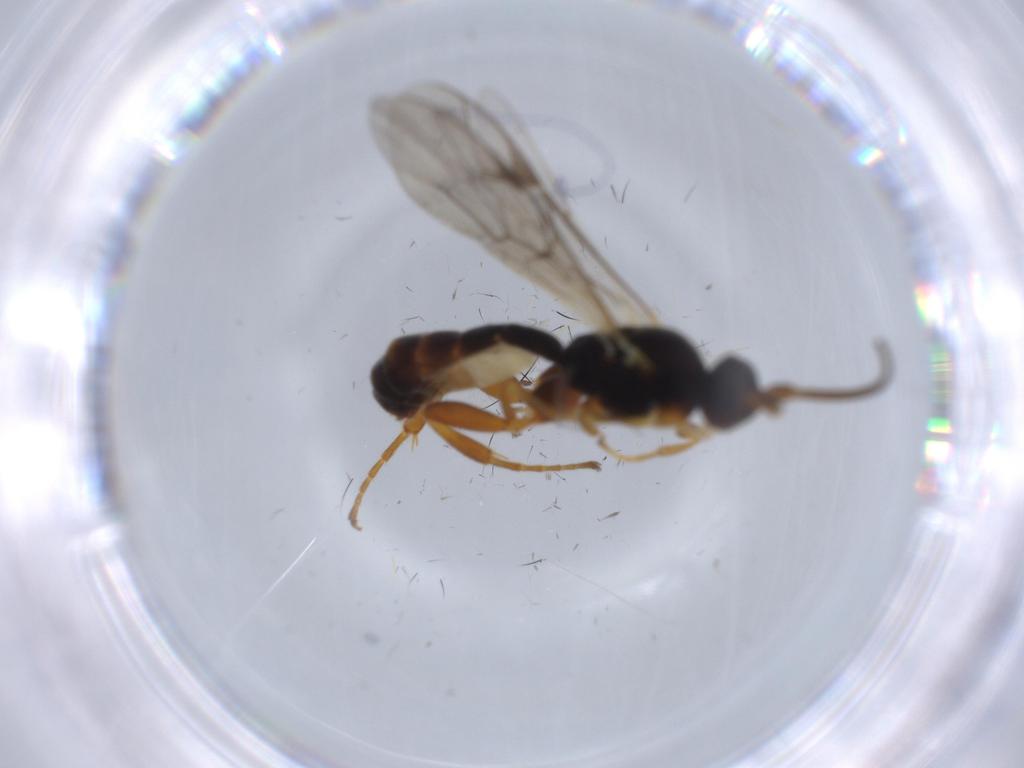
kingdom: Animalia
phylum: Arthropoda
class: Insecta
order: Hymenoptera
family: Ichneumonidae
